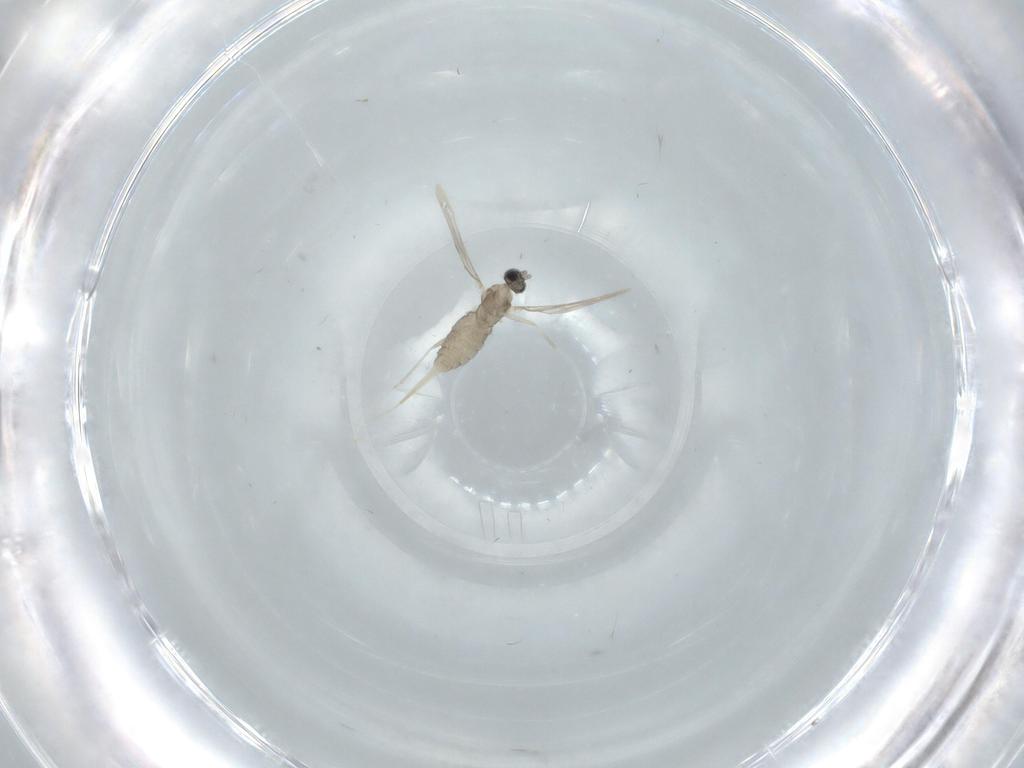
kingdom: Animalia
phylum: Arthropoda
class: Insecta
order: Diptera
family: Cecidomyiidae
